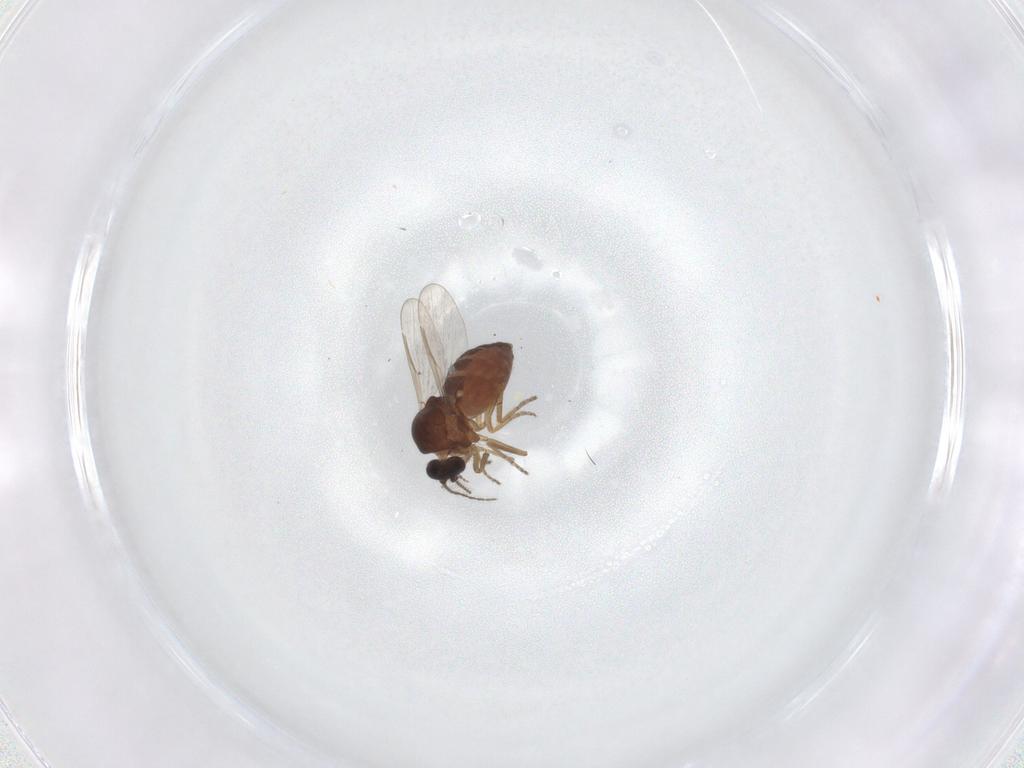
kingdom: Animalia
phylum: Arthropoda
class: Insecta
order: Diptera
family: Ceratopogonidae
